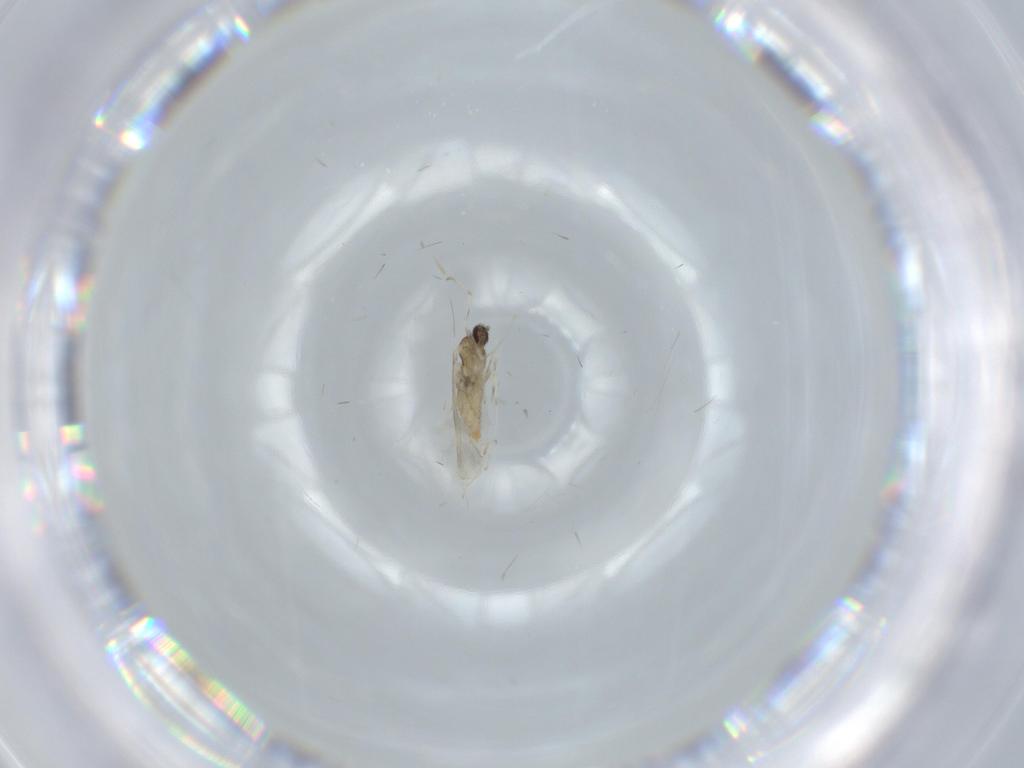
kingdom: Animalia
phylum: Arthropoda
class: Insecta
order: Diptera
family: Cecidomyiidae
